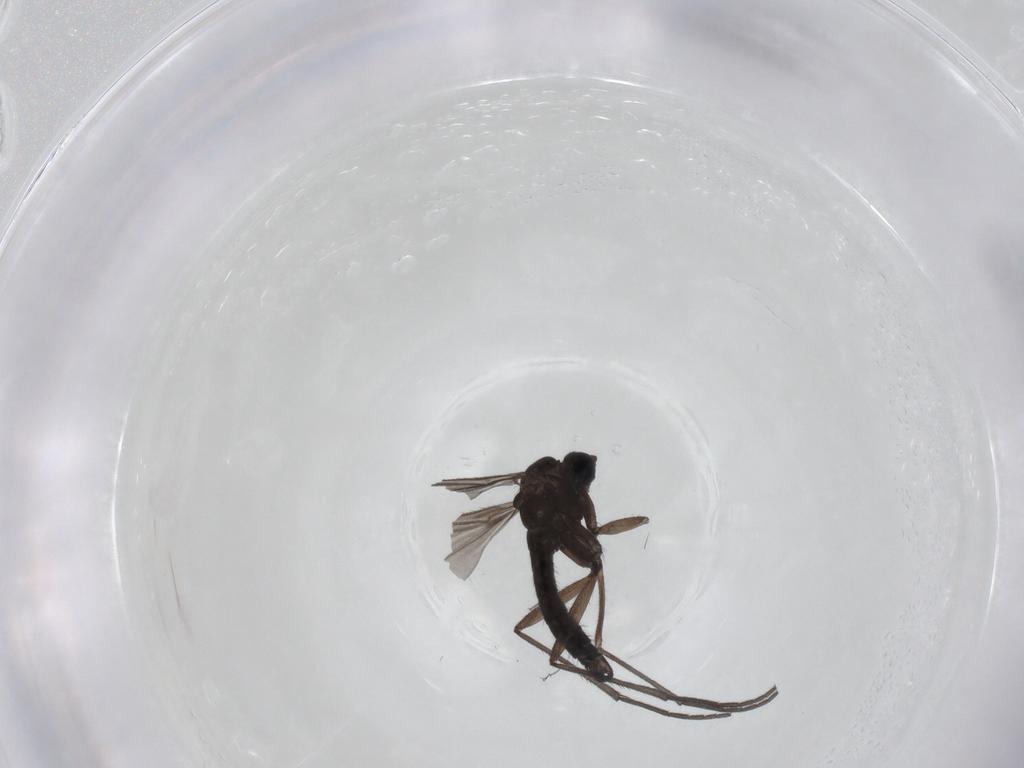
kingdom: Animalia
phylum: Arthropoda
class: Insecta
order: Diptera
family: Sciaridae
